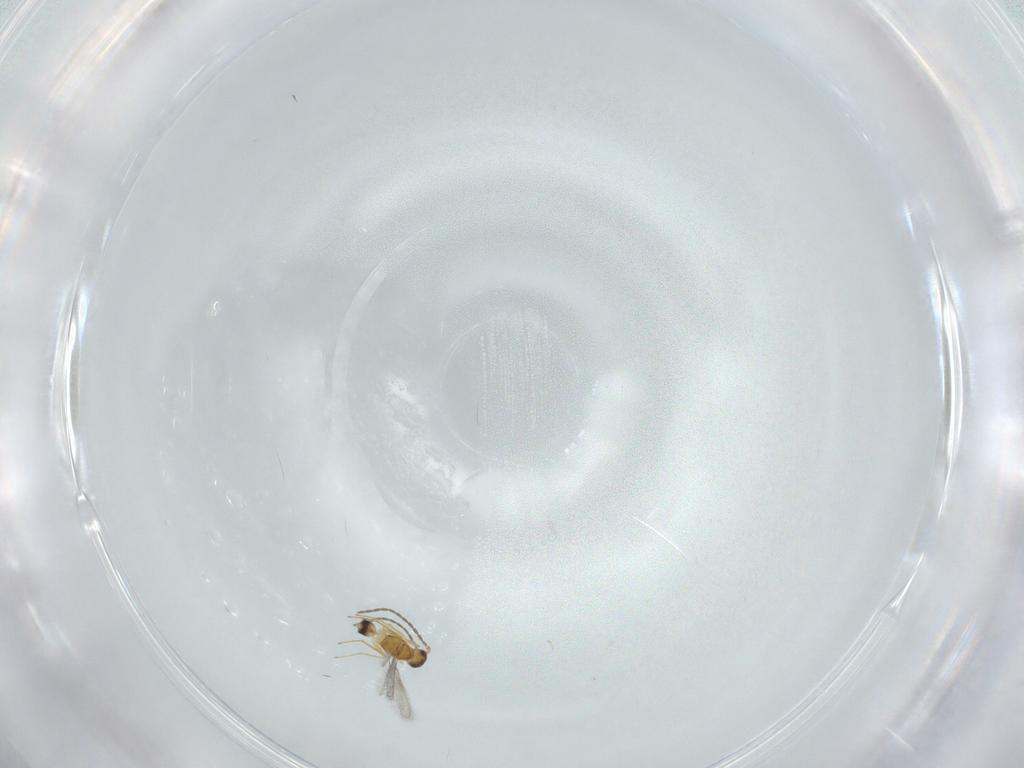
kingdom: Animalia
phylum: Arthropoda
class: Insecta
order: Hymenoptera
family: Mymaridae
